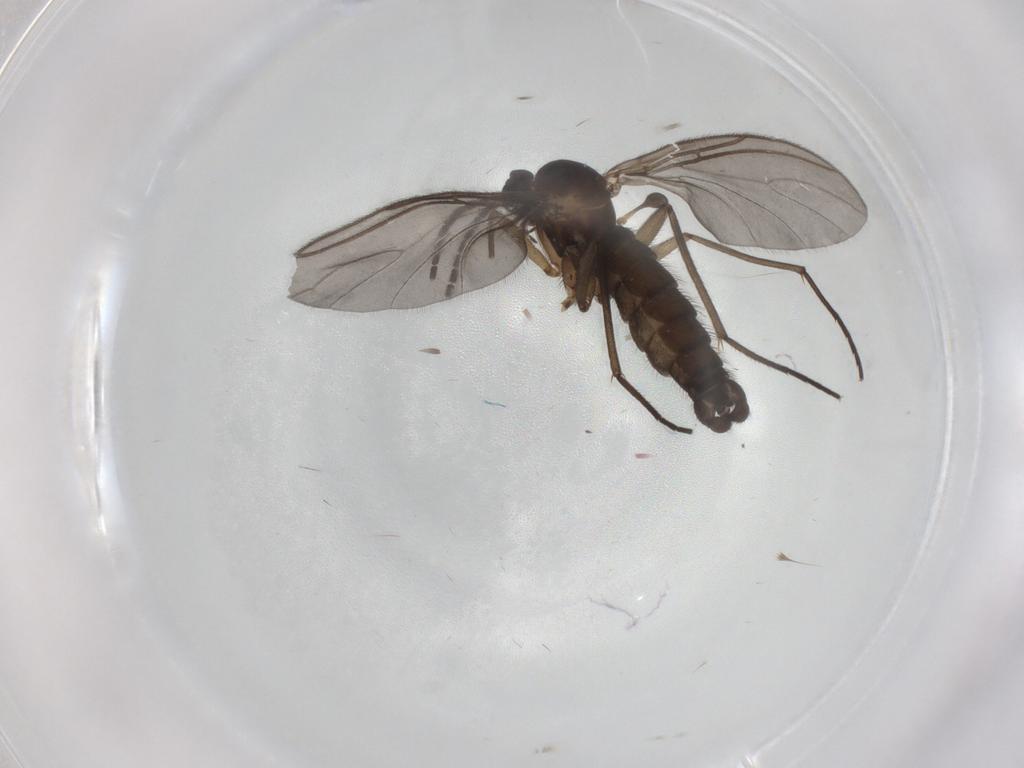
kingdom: Animalia
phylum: Arthropoda
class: Insecta
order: Diptera
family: Sciaridae
